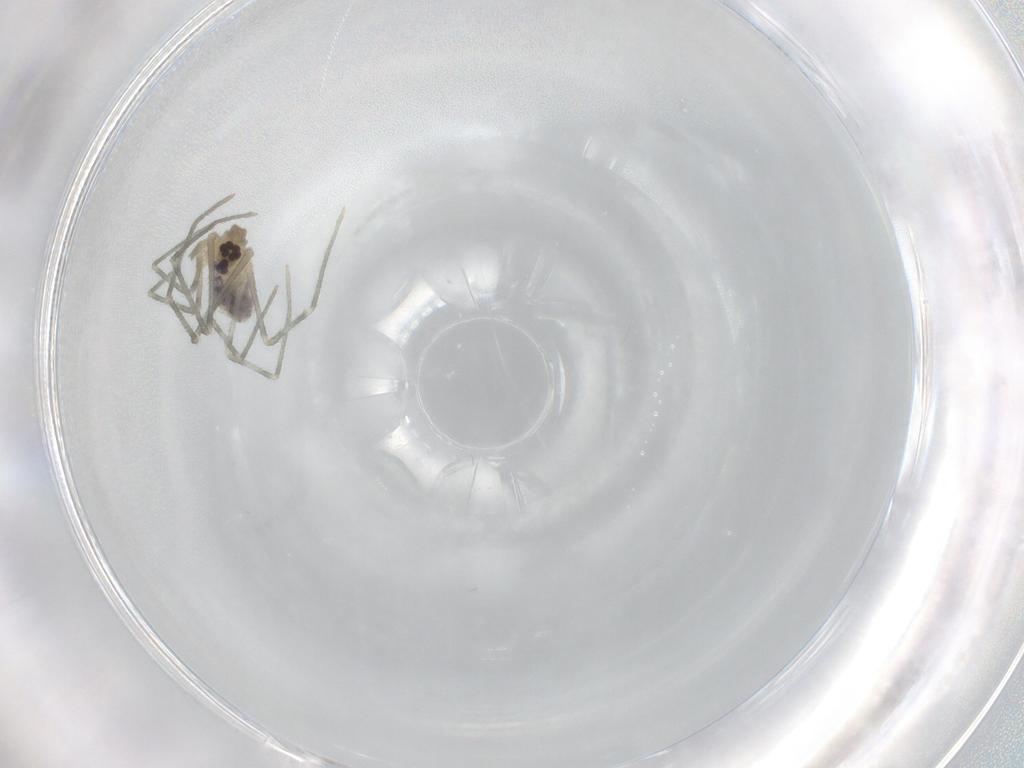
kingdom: Animalia
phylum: Arthropoda
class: Arachnida
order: Araneae
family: Pholcidae
